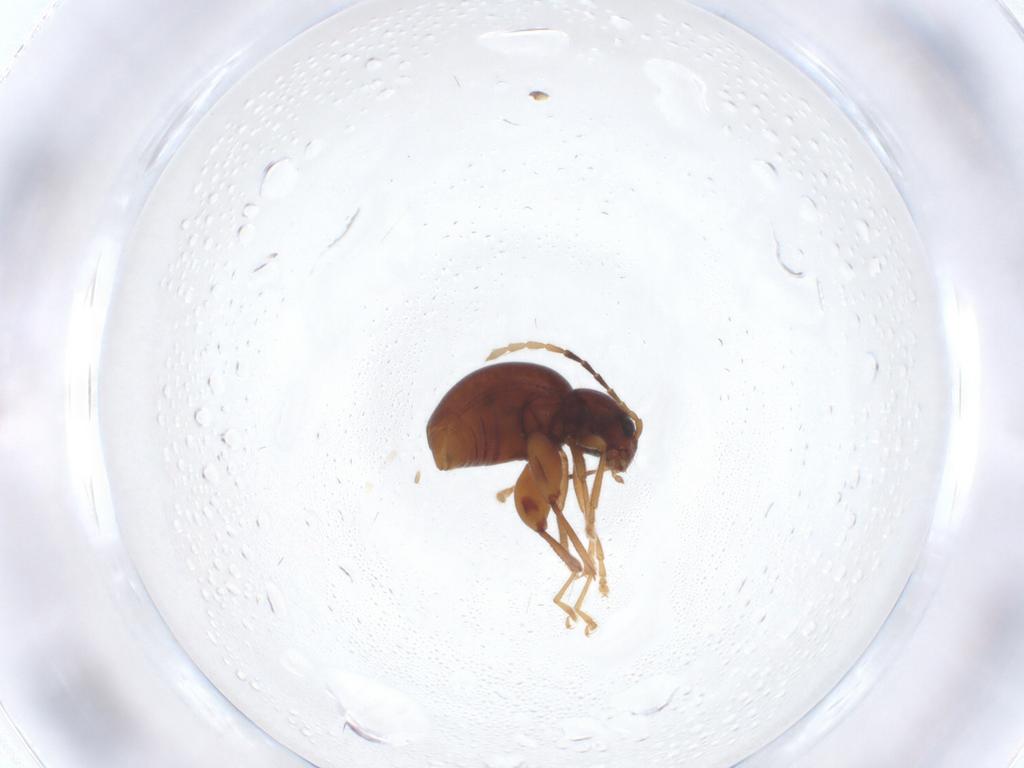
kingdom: Animalia
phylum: Arthropoda
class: Insecta
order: Coleoptera
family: Chrysomelidae
